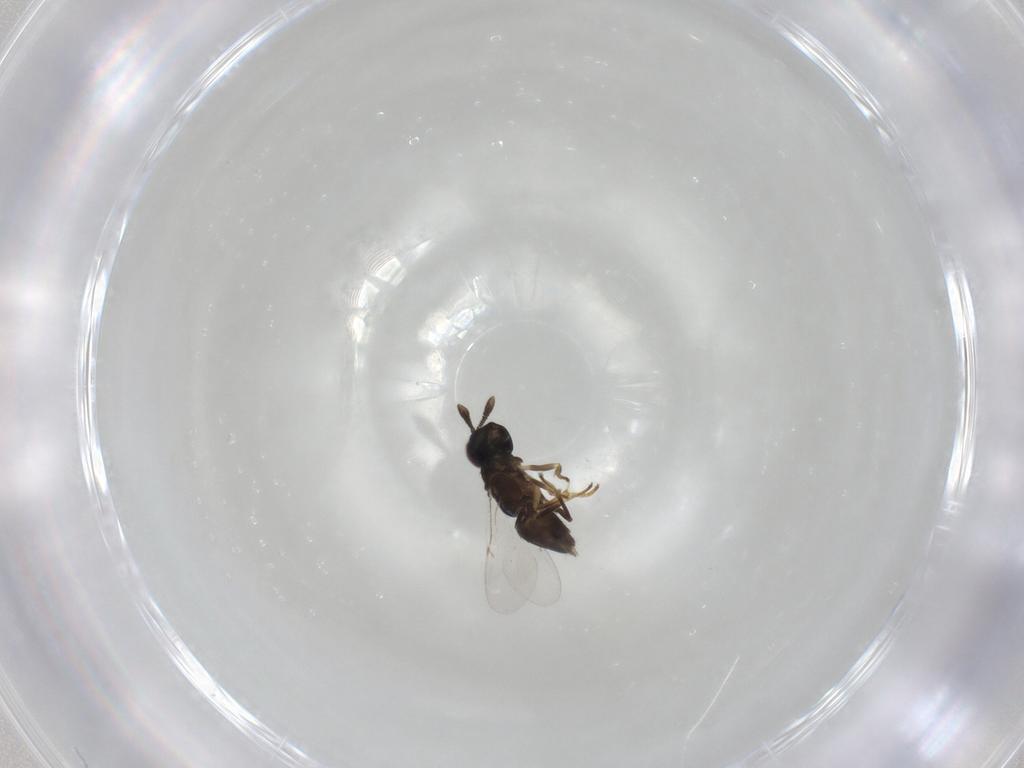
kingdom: Animalia
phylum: Arthropoda
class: Insecta
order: Hymenoptera
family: Encyrtidae
